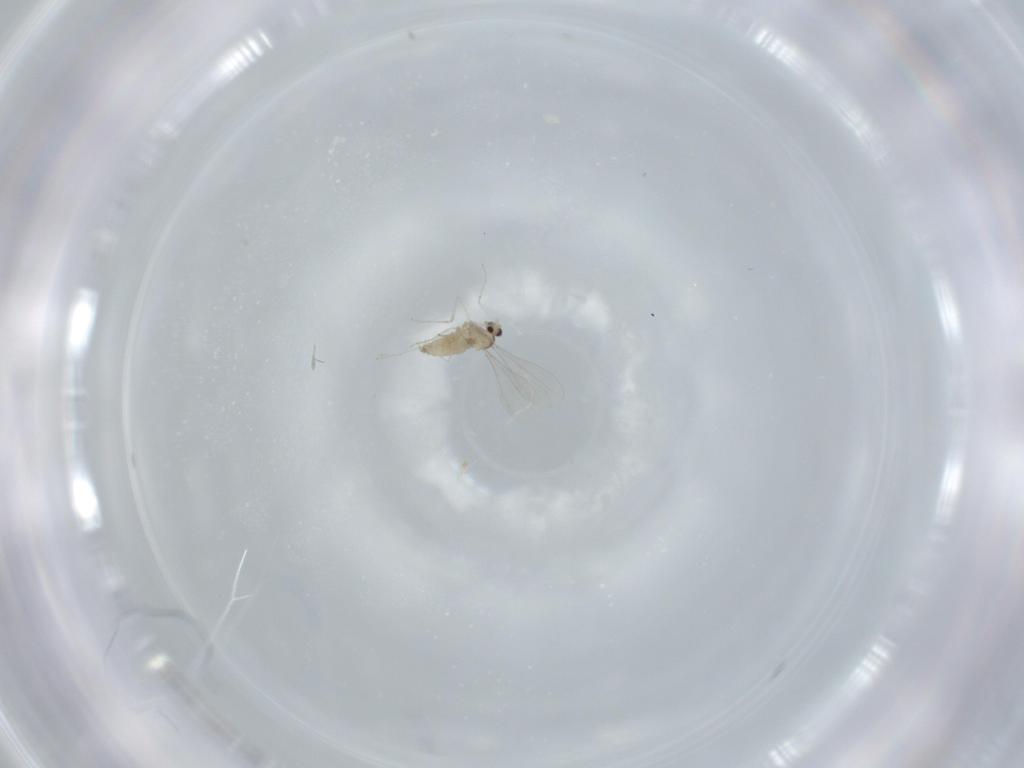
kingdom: Animalia
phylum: Arthropoda
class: Insecta
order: Diptera
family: Cecidomyiidae
